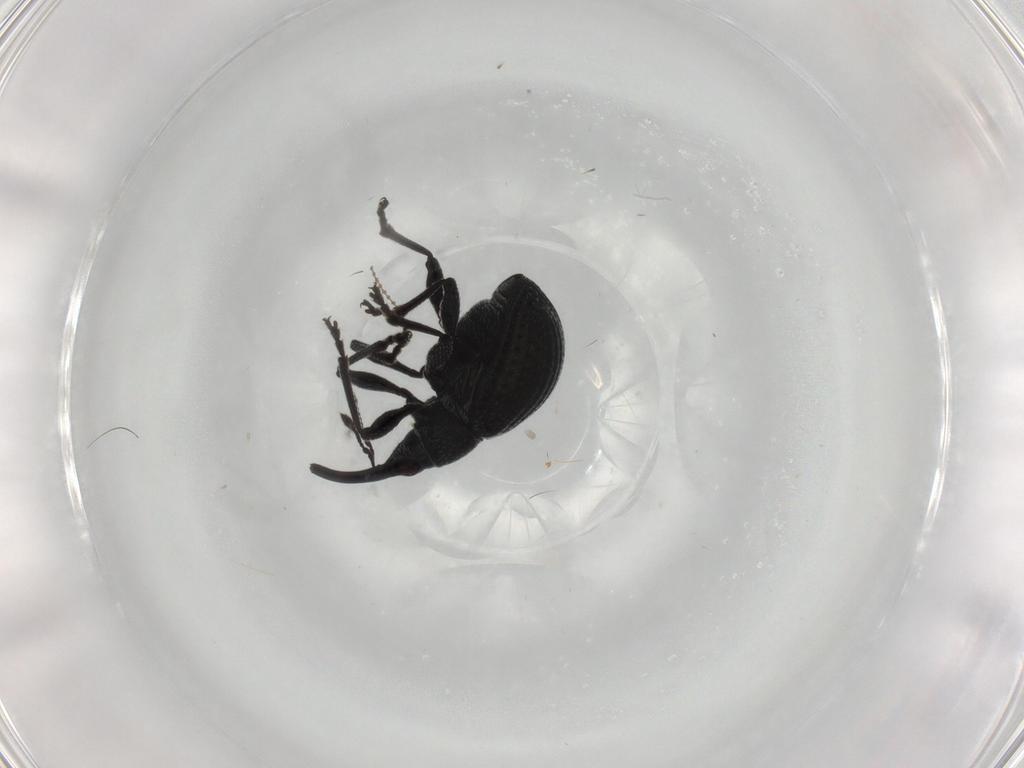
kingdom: Animalia
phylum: Arthropoda
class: Insecta
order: Coleoptera
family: Brentidae
